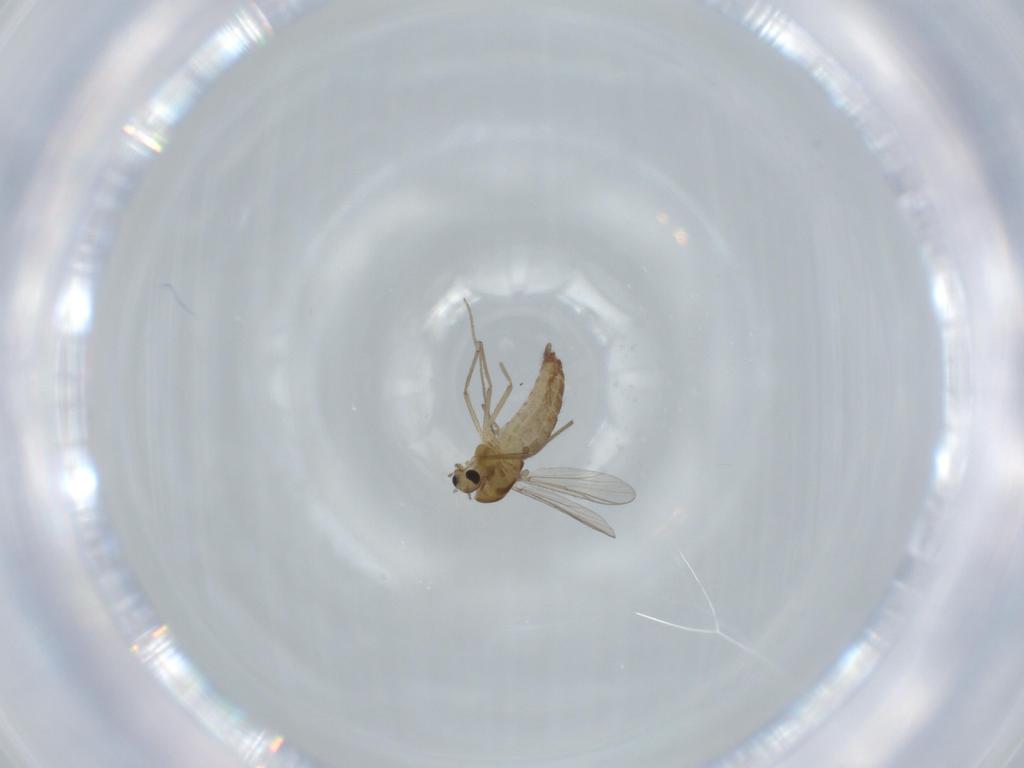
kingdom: Animalia
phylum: Arthropoda
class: Insecta
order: Diptera
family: Chironomidae
